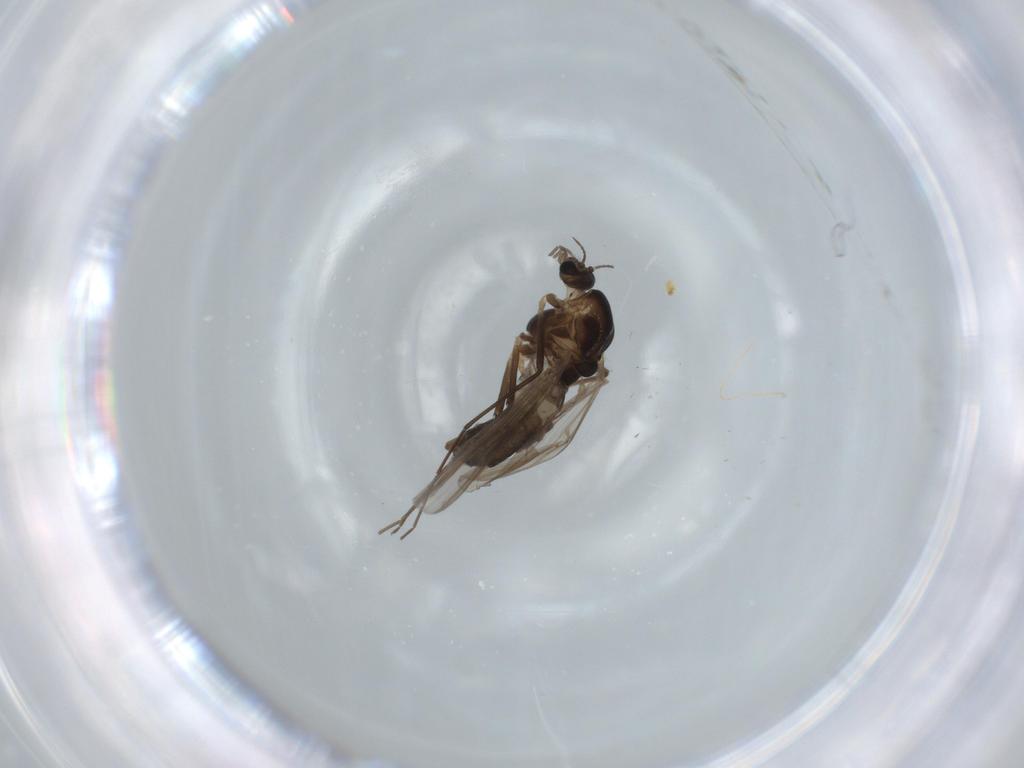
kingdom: Animalia
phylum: Arthropoda
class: Insecta
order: Diptera
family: Chironomidae
